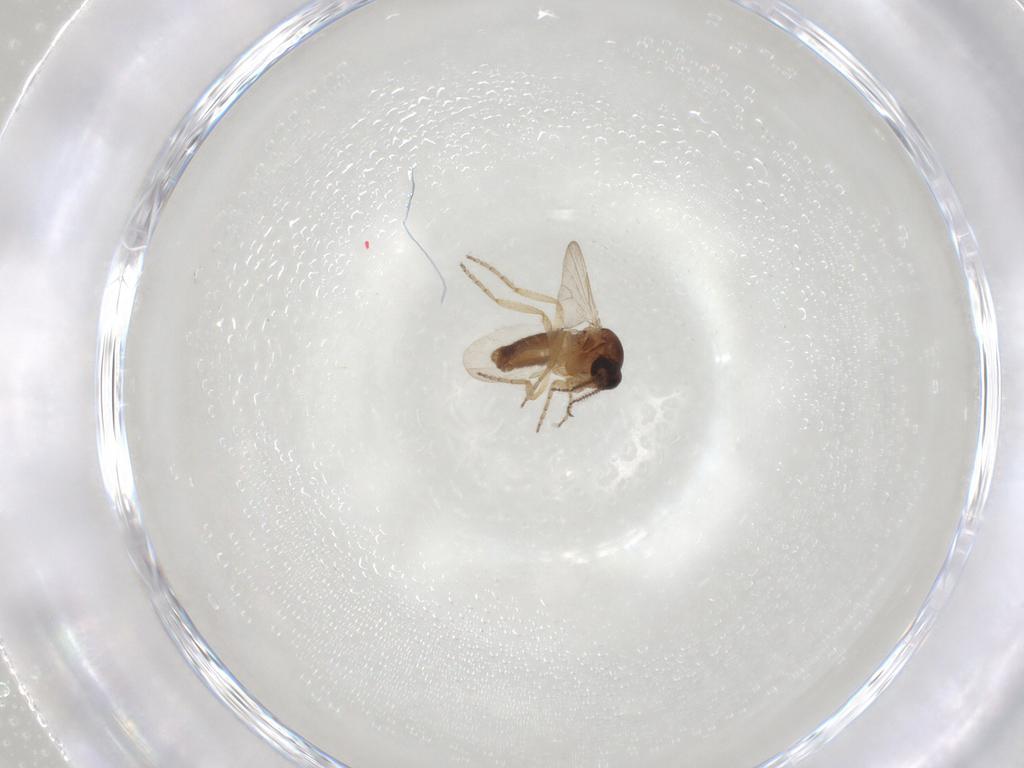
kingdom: Animalia
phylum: Arthropoda
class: Insecta
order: Diptera
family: Ceratopogonidae
